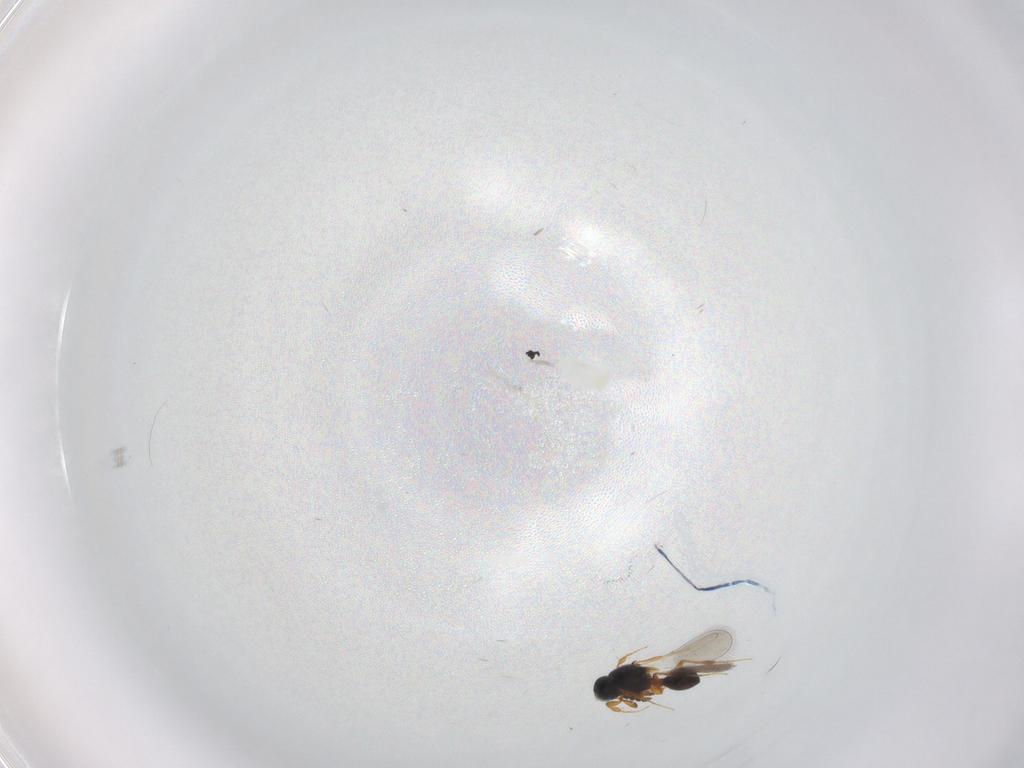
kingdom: Animalia
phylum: Arthropoda
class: Insecta
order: Hymenoptera
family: Platygastridae
